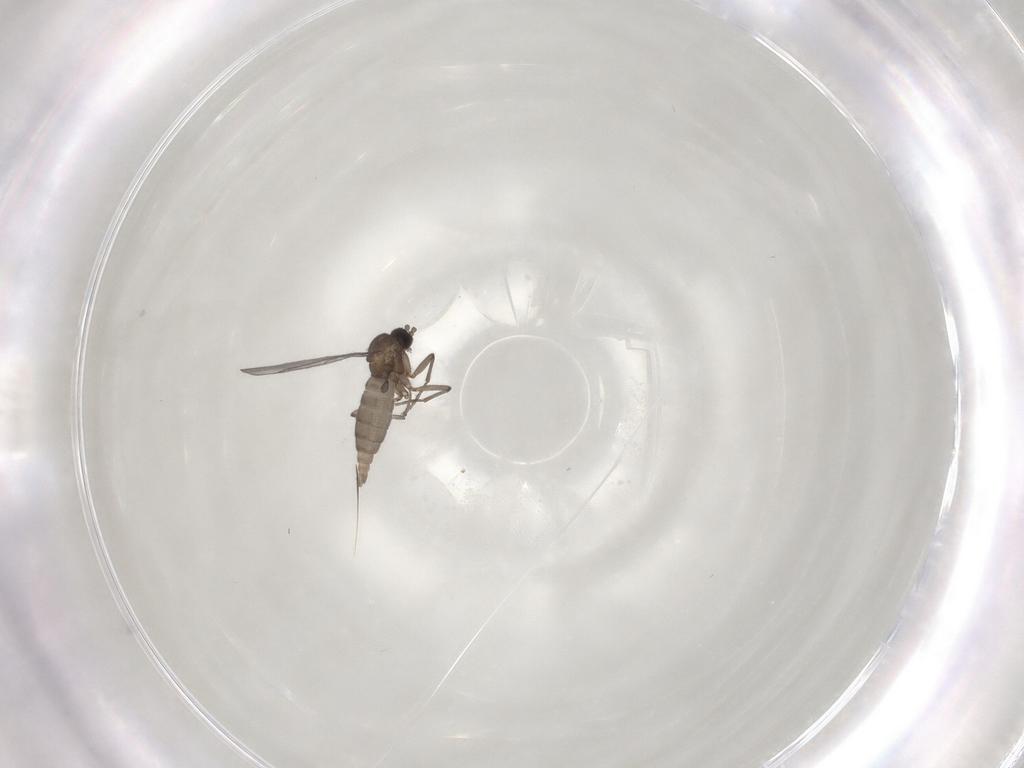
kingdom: Animalia
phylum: Arthropoda
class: Insecta
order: Diptera
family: Sciaridae
